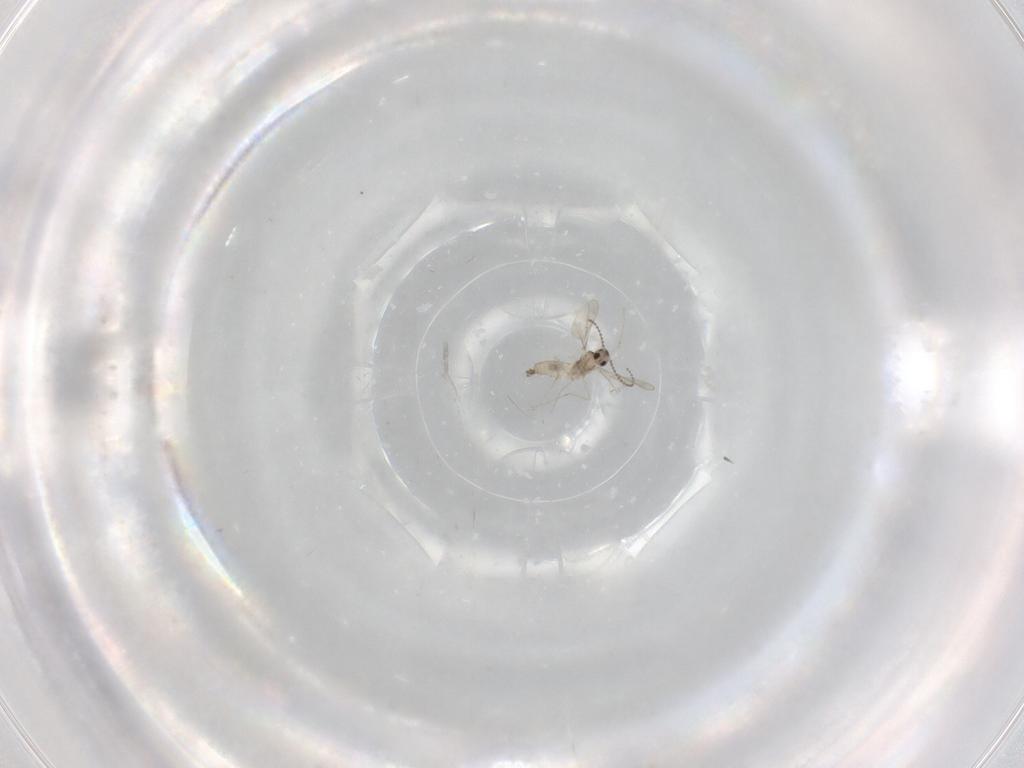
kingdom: Animalia
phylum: Arthropoda
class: Insecta
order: Diptera
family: Cecidomyiidae
